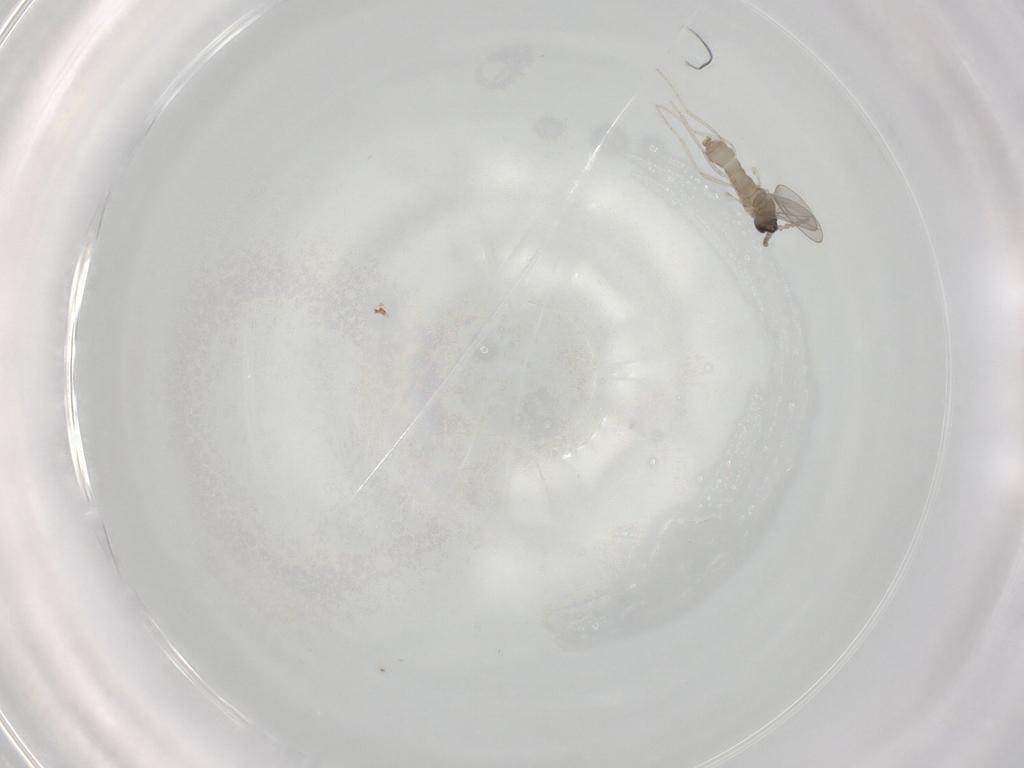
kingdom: Animalia
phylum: Arthropoda
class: Insecta
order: Diptera
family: Cecidomyiidae
